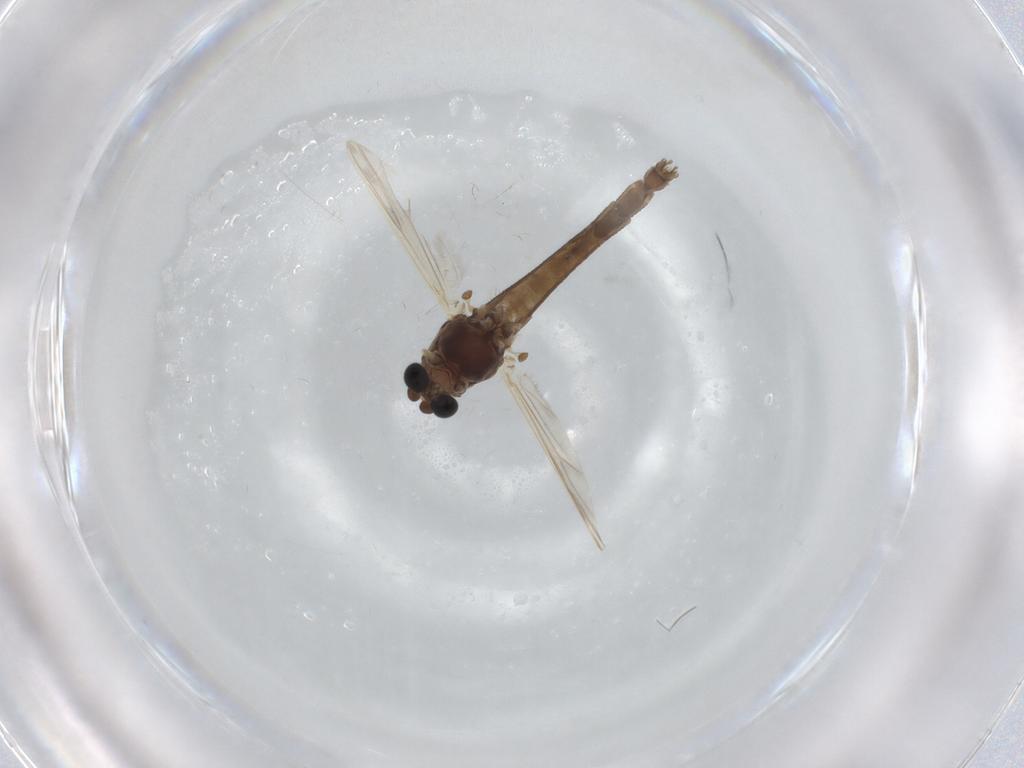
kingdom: Animalia
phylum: Arthropoda
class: Insecta
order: Diptera
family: Chironomidae
